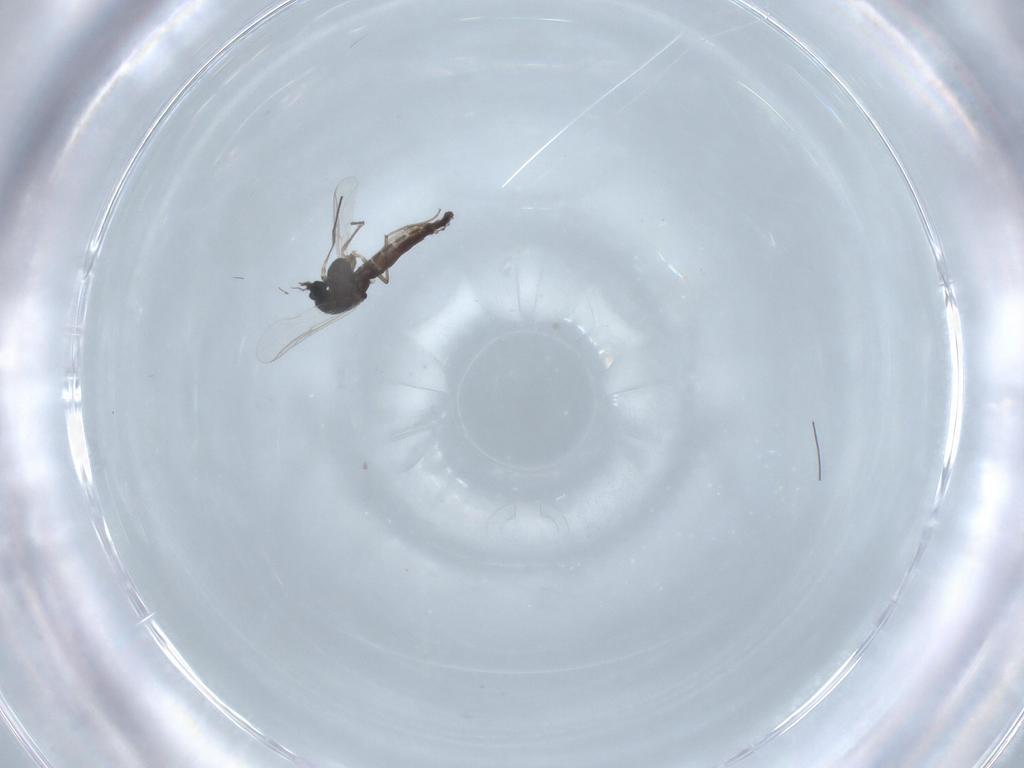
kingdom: Animalia
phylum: Arthropoda
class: Insecta
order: Diptera
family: Chironomidae
